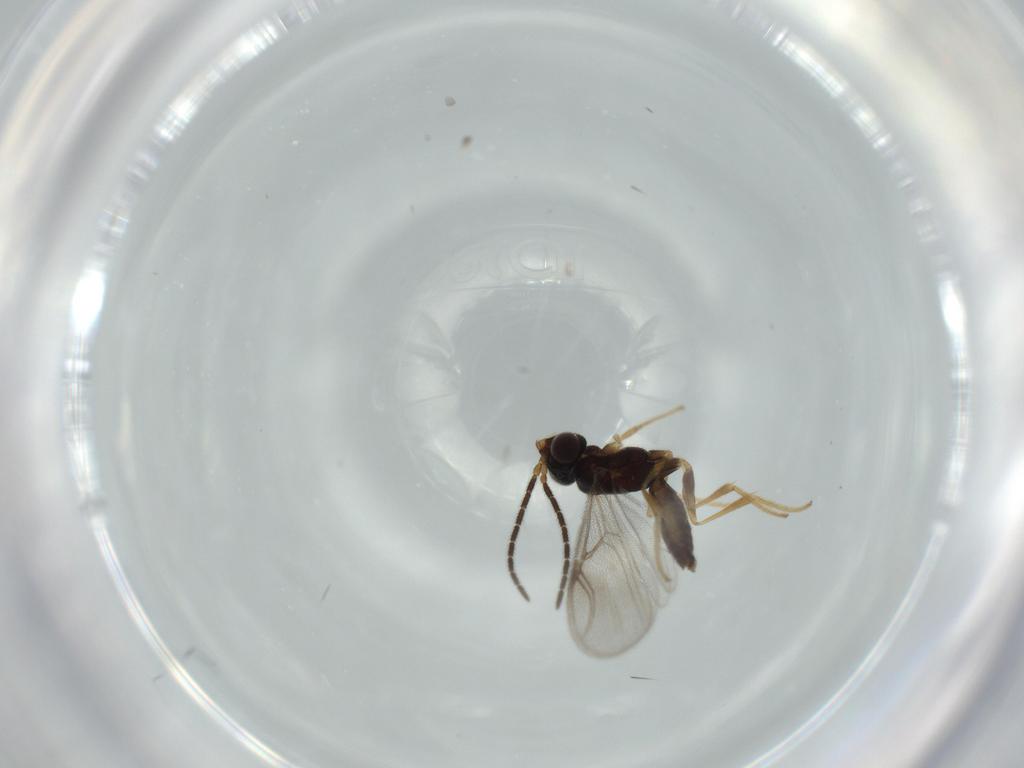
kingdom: Animalia
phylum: Arthropoda
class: Insecta
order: Hymenoptera
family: Dryinidae
